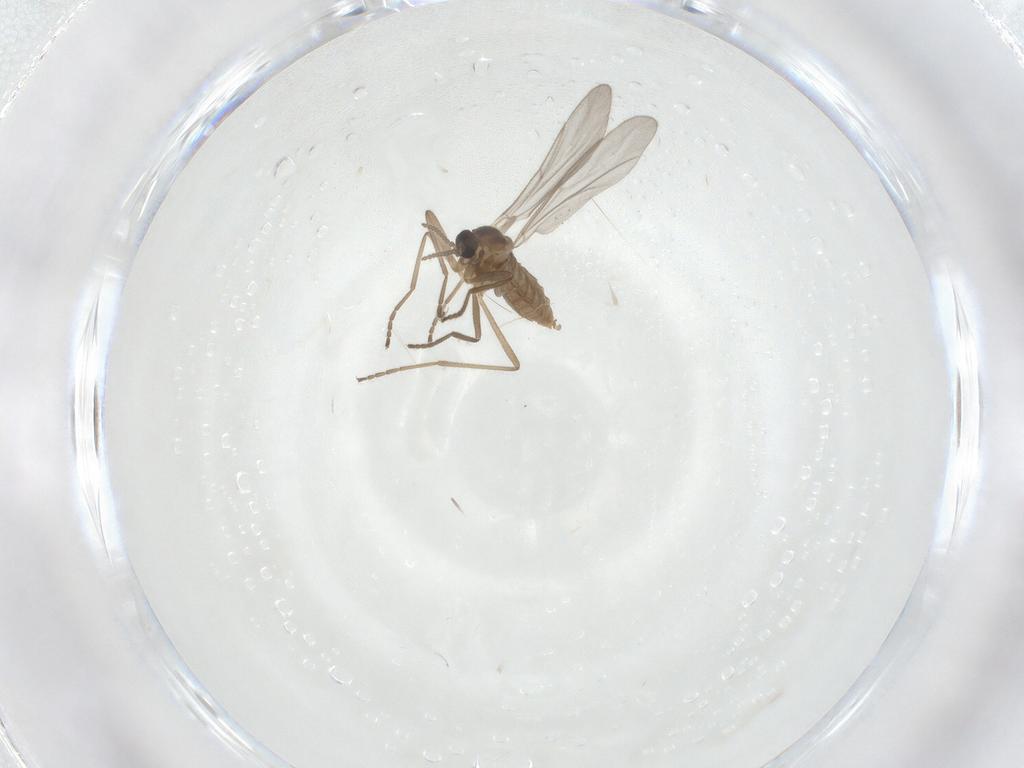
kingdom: Animalia
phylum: Arthropoda
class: Insecta
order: Diptera
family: Cecidomyiidae
